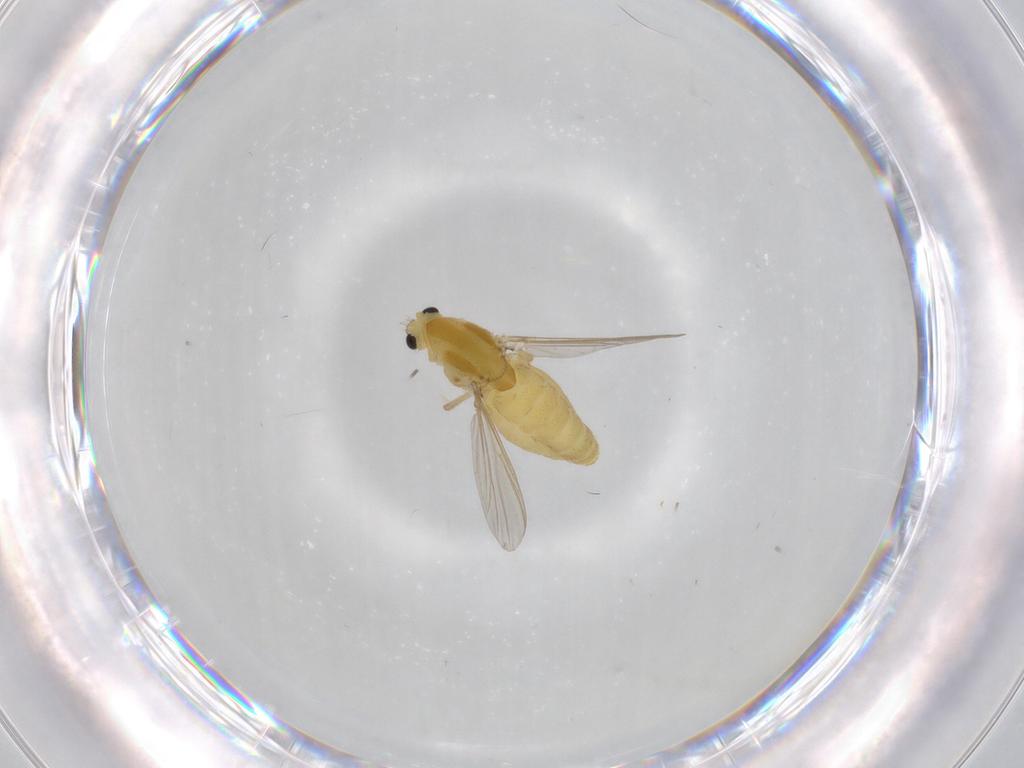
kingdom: Animalia
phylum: Arthropoda
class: Insecta
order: Diptera
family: Chironomidae
